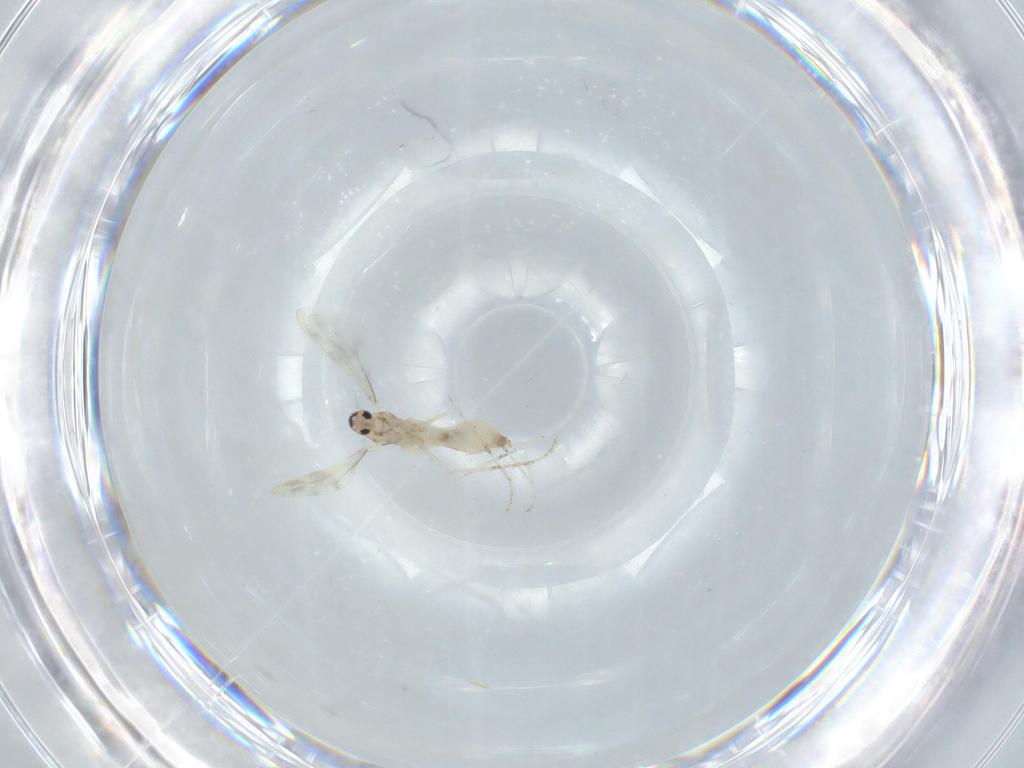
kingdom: Animalia
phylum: Arthropoda
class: Insecta
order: Diptera
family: Cecidomyiidae
